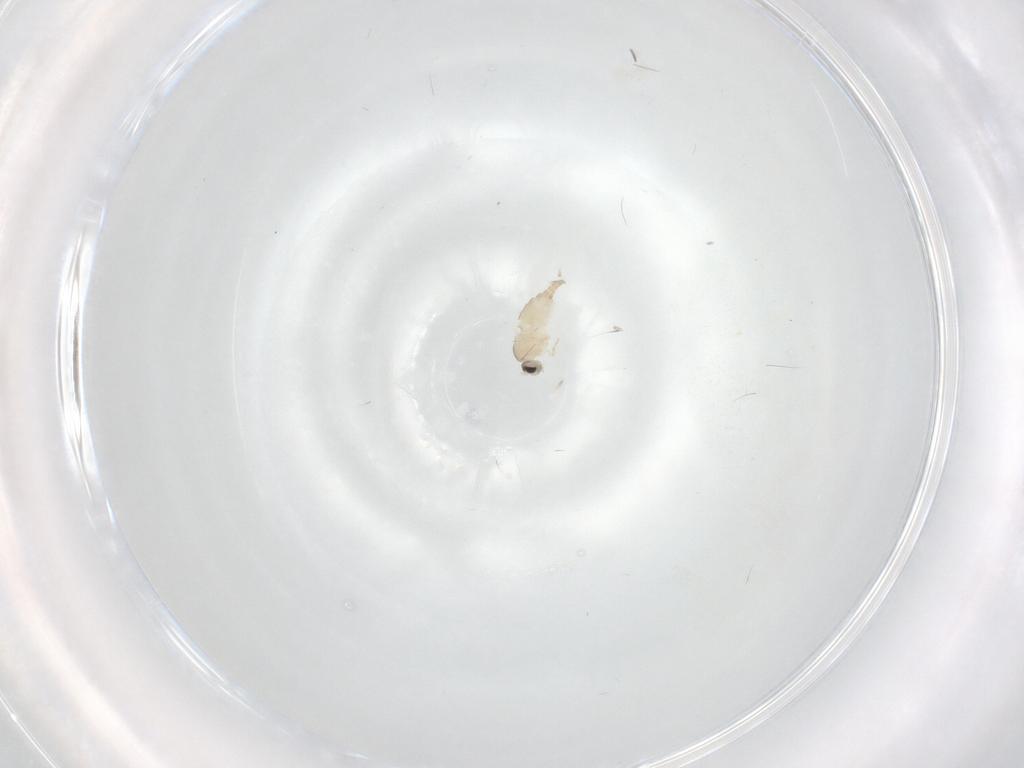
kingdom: Animalia
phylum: Arthropoda
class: Insecta
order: Diptera
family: Cecidomyiidae
